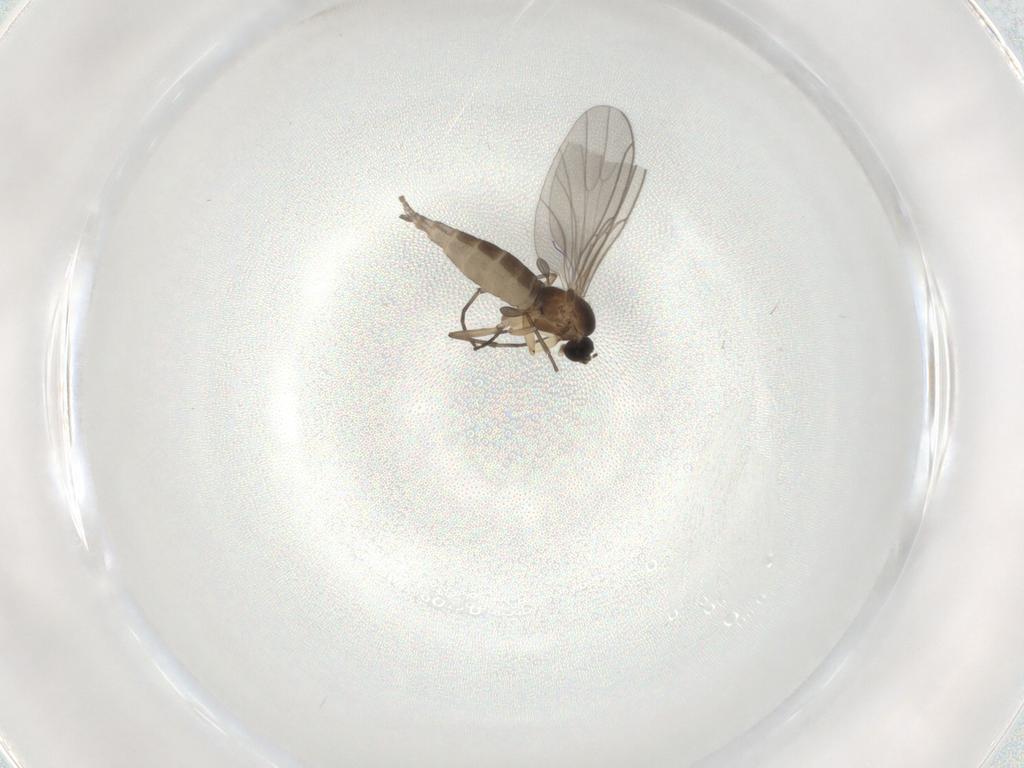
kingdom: Animalia
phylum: Arthropoda
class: Insecta
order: Diptera
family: Sciaridae
